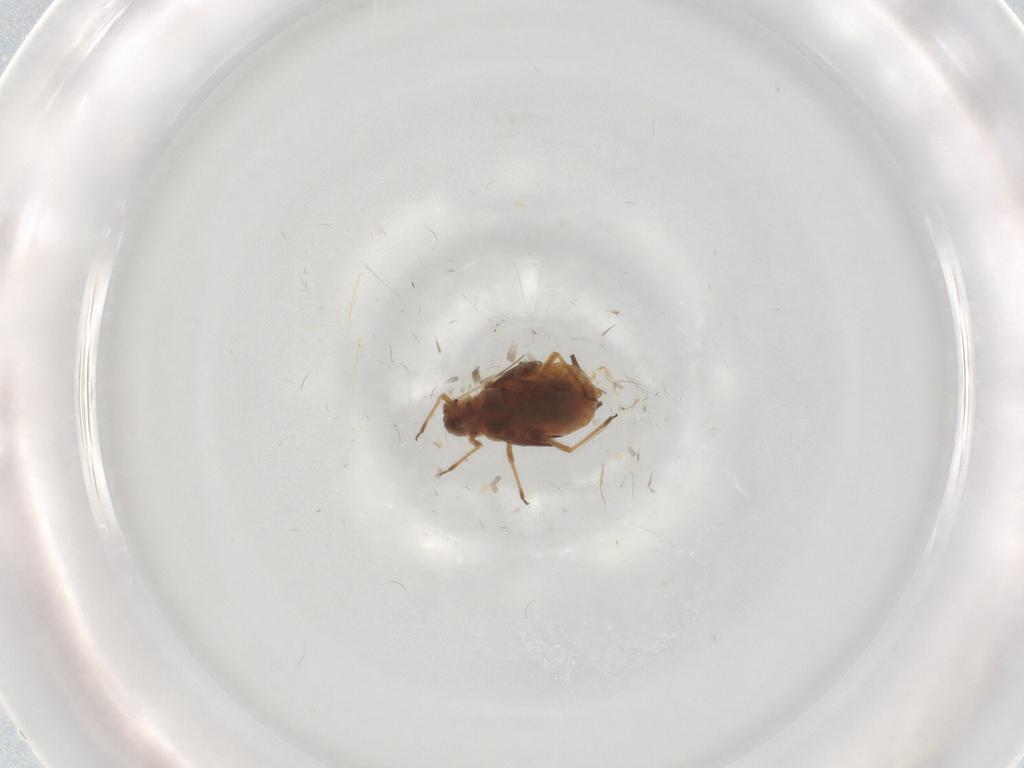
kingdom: Animalia
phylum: Arthropoda
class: Insecta
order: Hemiptera
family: Aphididae
